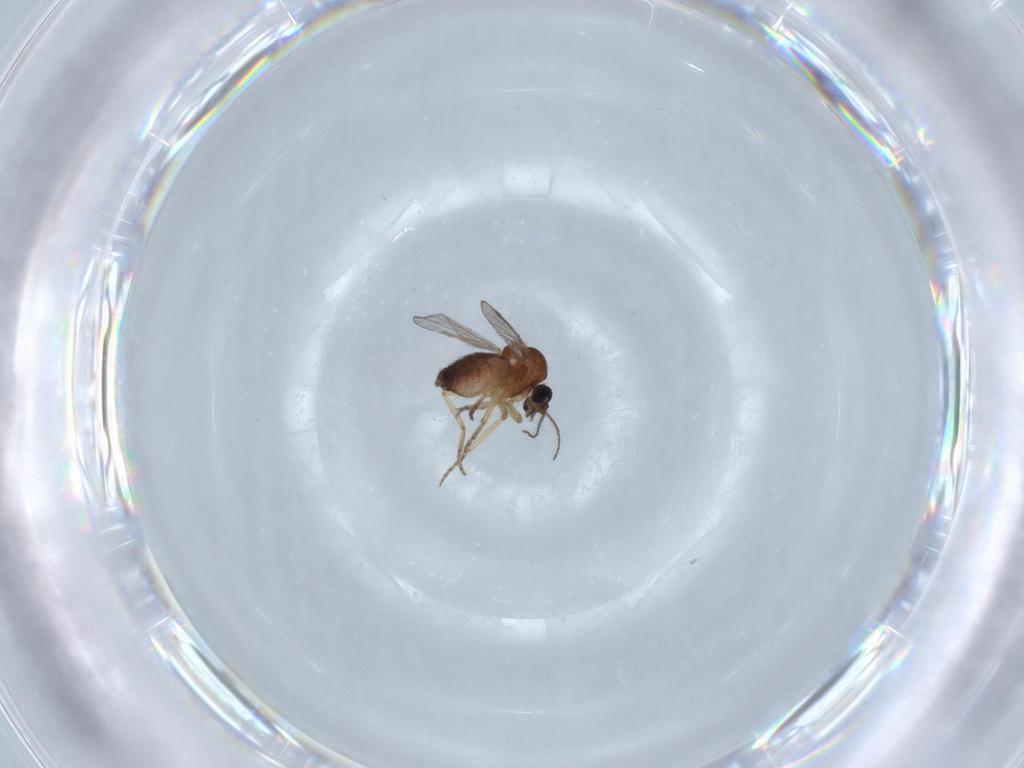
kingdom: Animalia
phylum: Arthropoda
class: Insecta
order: Diptera
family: Ceratopogonidae
